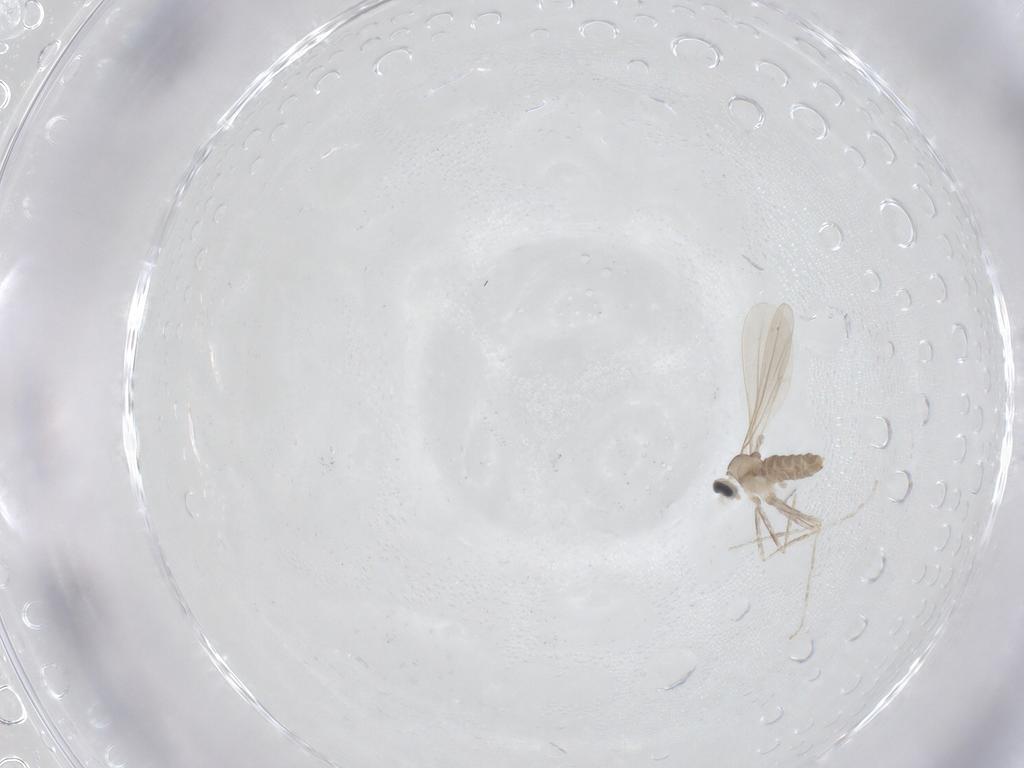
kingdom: Animalia
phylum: Arthropoda
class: Insecta
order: Diptera
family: Cecidomyiidae
